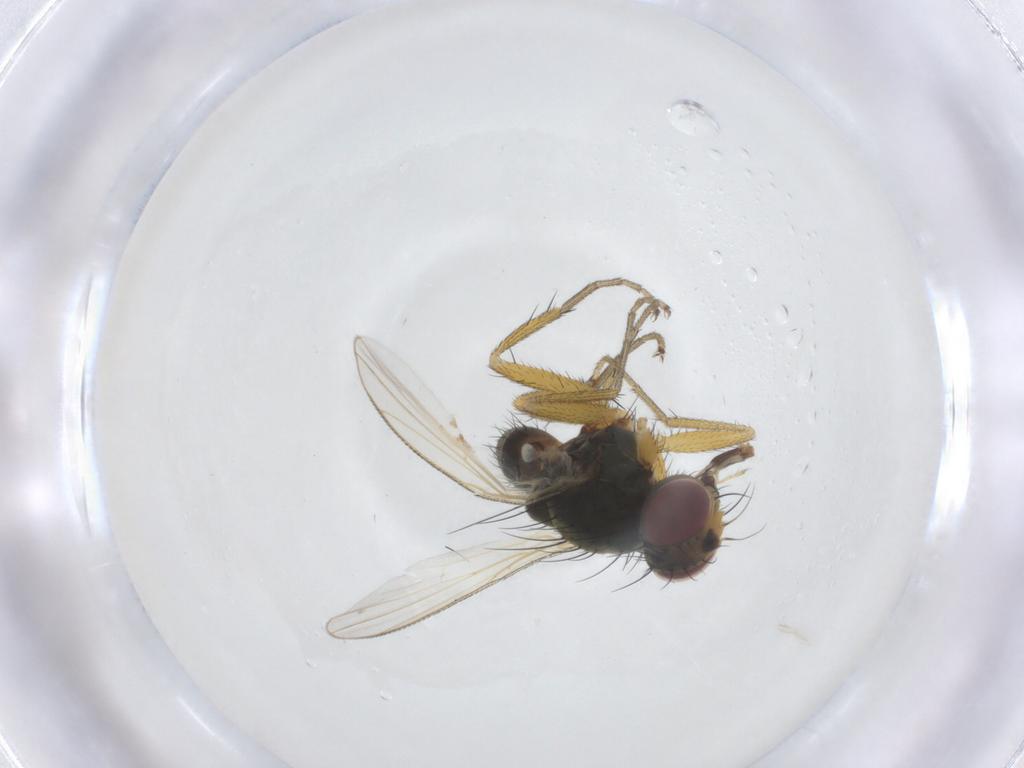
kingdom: Animalia
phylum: Arthropoda
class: Insecta
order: Diptera
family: Muscidae
